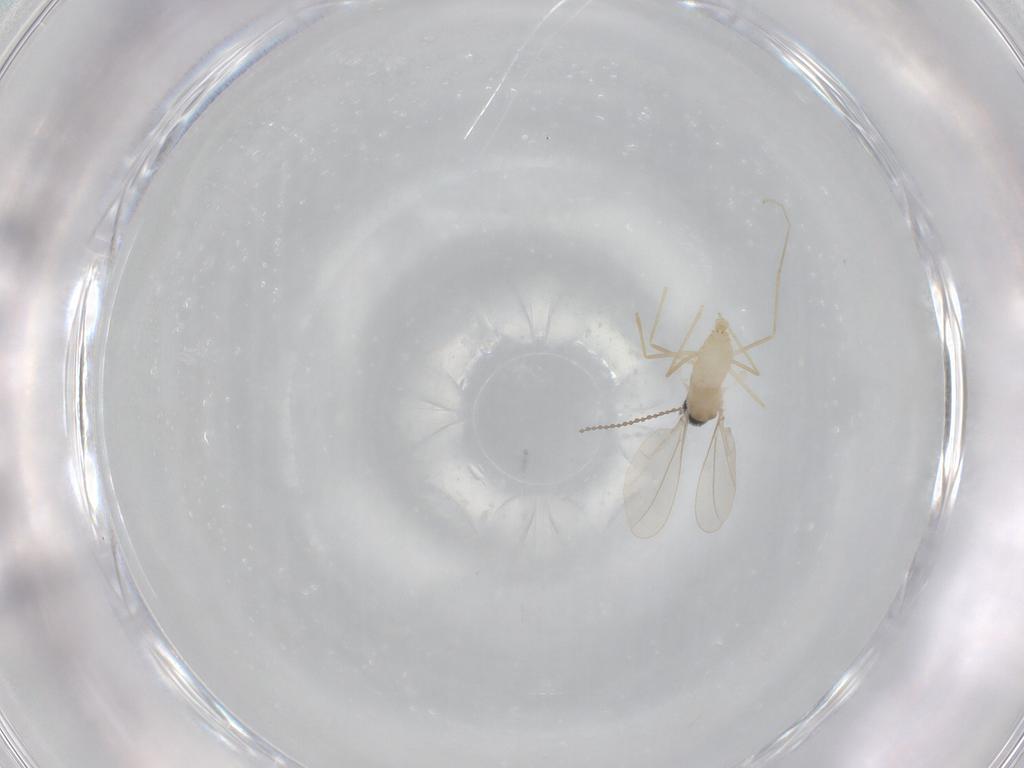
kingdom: Animalia
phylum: Arthropoda
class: Insecta
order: Diptera
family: Cecidomyiidae
